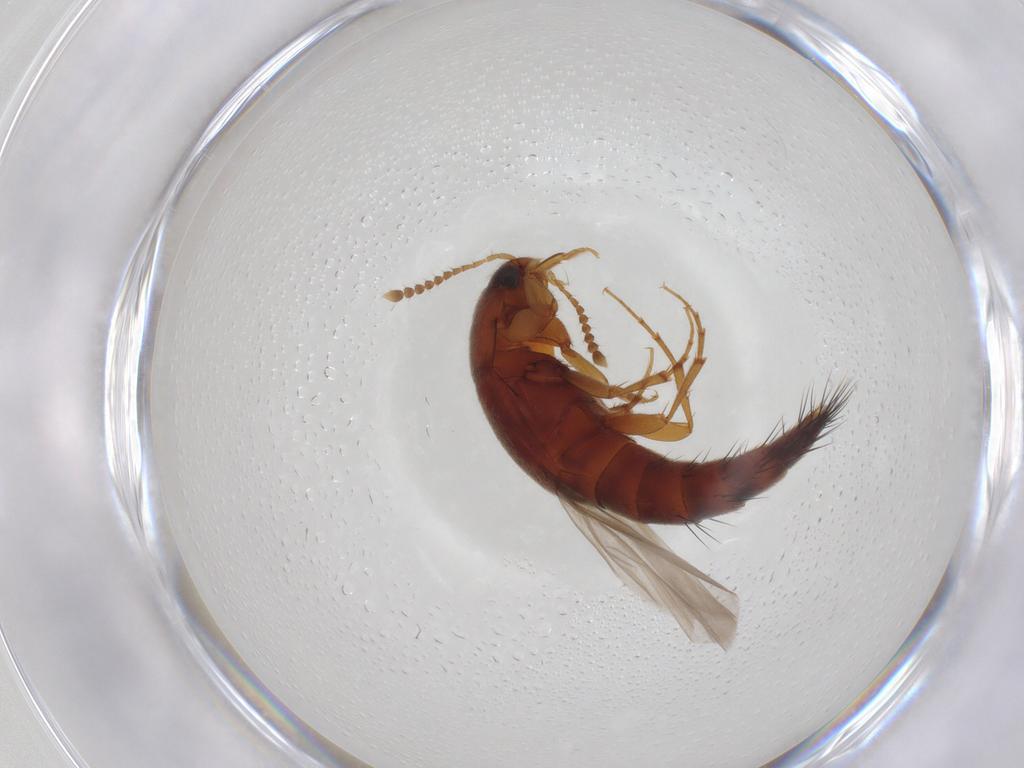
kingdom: Animalia
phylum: Arthropoda
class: Insecta
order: Coleoptera
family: Staphylinidae
